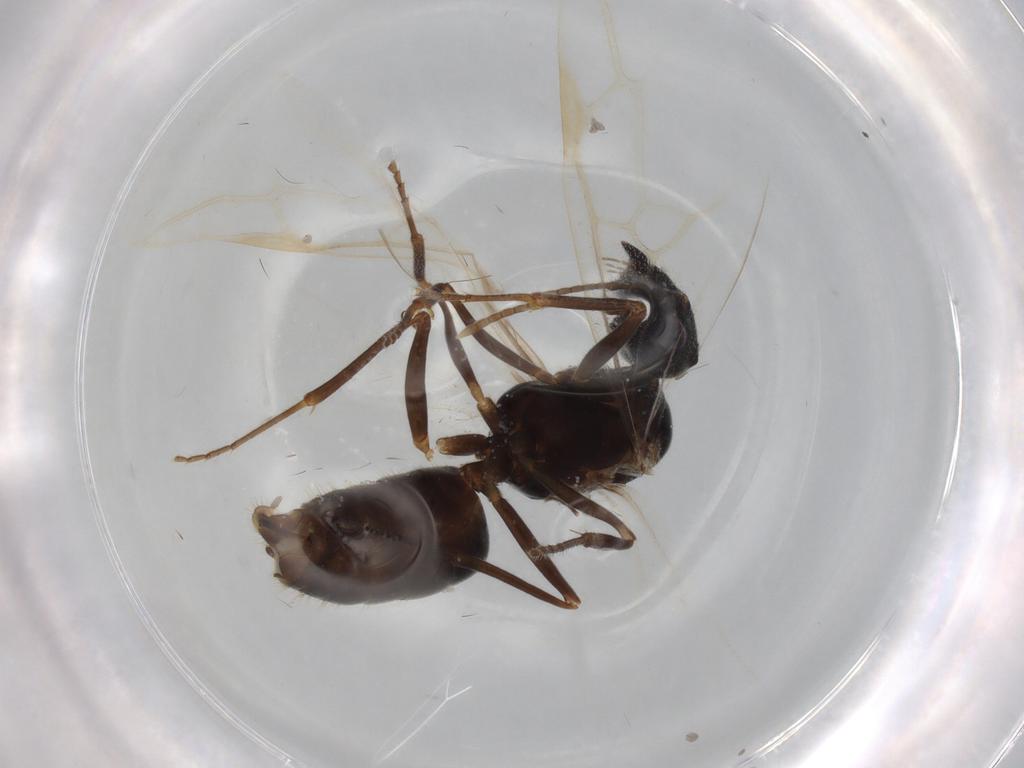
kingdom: Animalia
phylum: Arthropoda
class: Insecta
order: Hymenoptera
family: Formicidae
